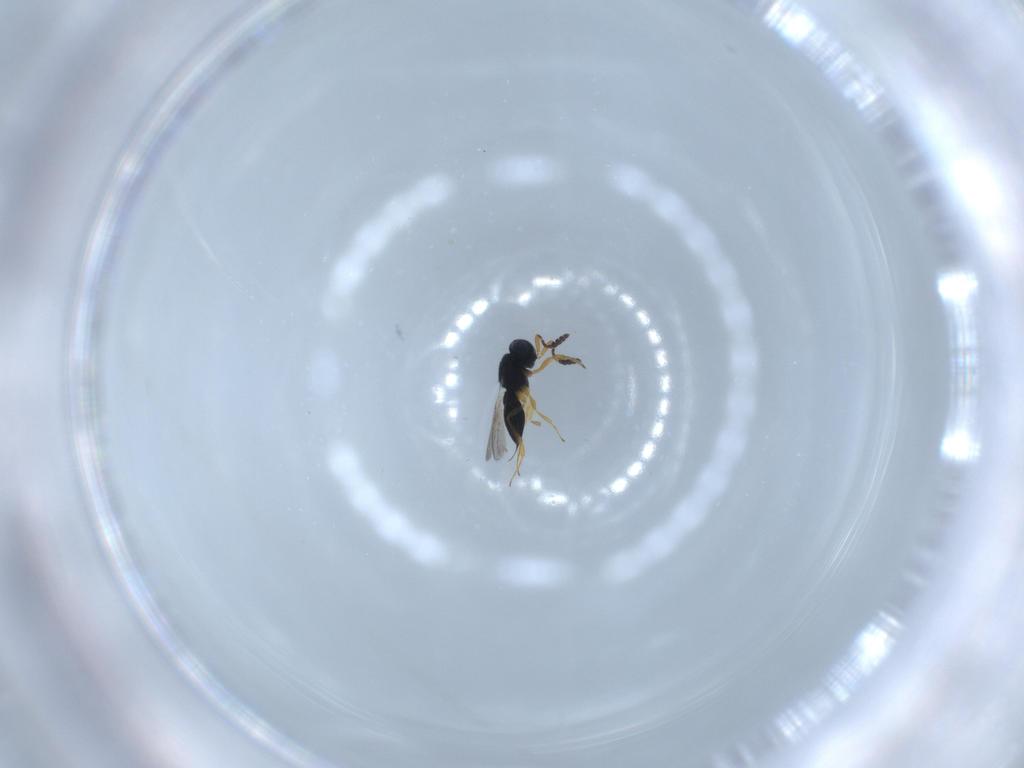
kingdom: Animalia
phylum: Arthropoda
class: Insecta
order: Hymenoptera
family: Scelionidae
